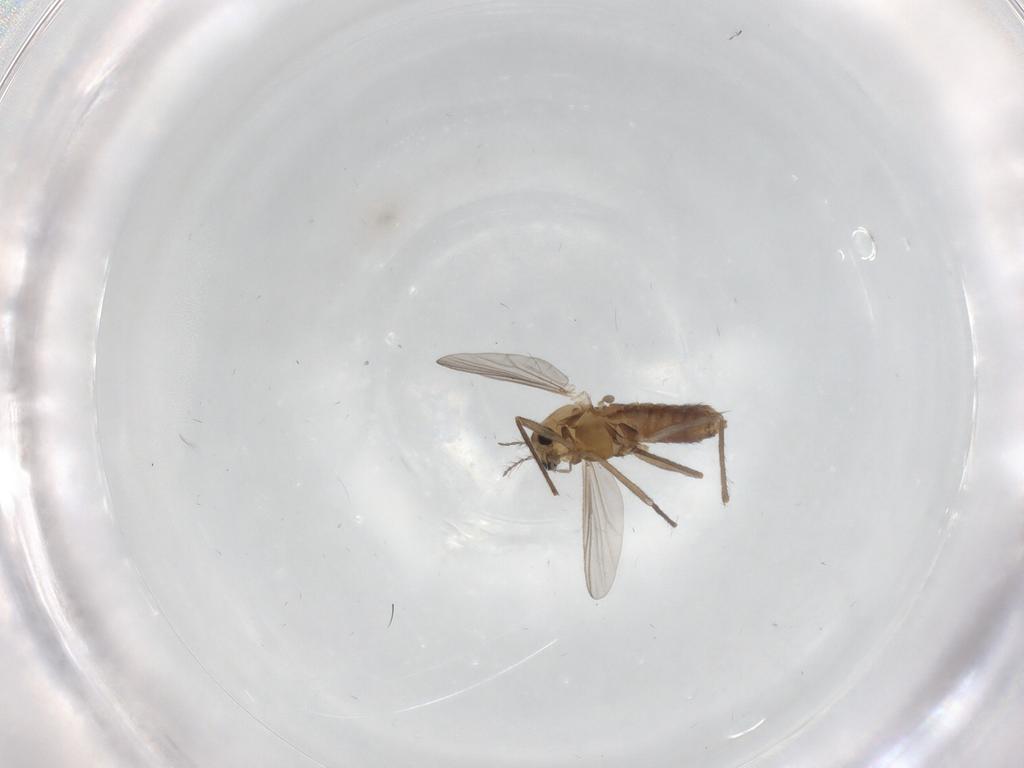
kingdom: Animalia
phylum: Arthropoda
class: Insecta
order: Diptera
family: Chironomidae
